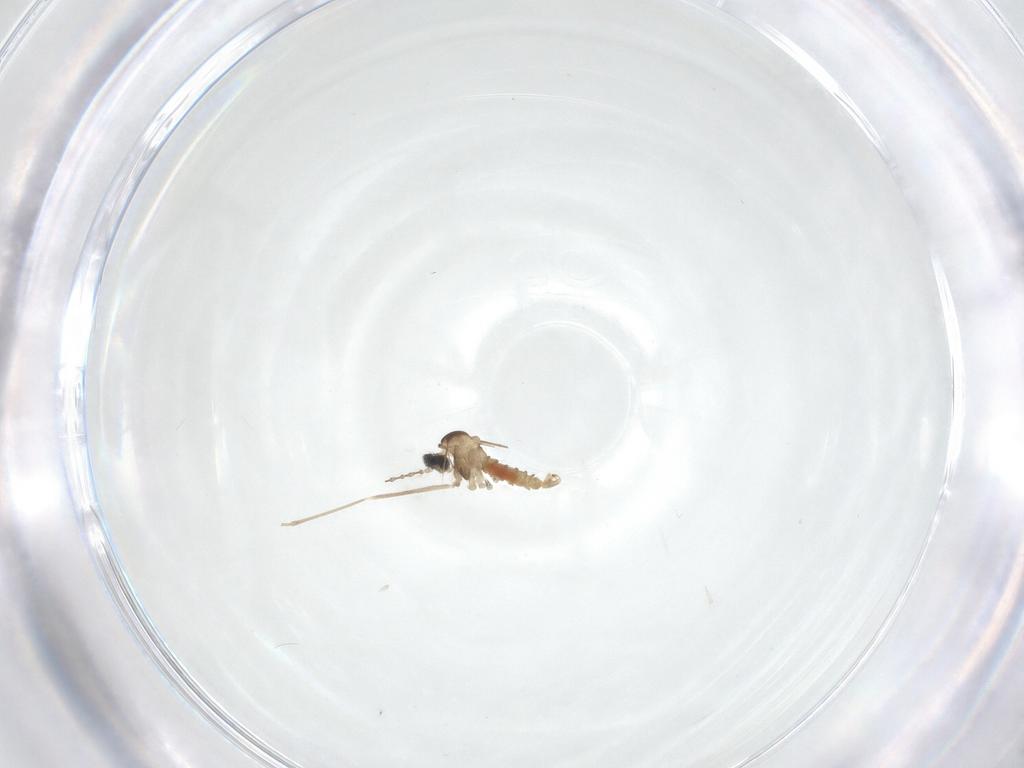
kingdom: Animalia
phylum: Arthropoda
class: Insecta
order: Diptera
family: Cecidomyiidae
